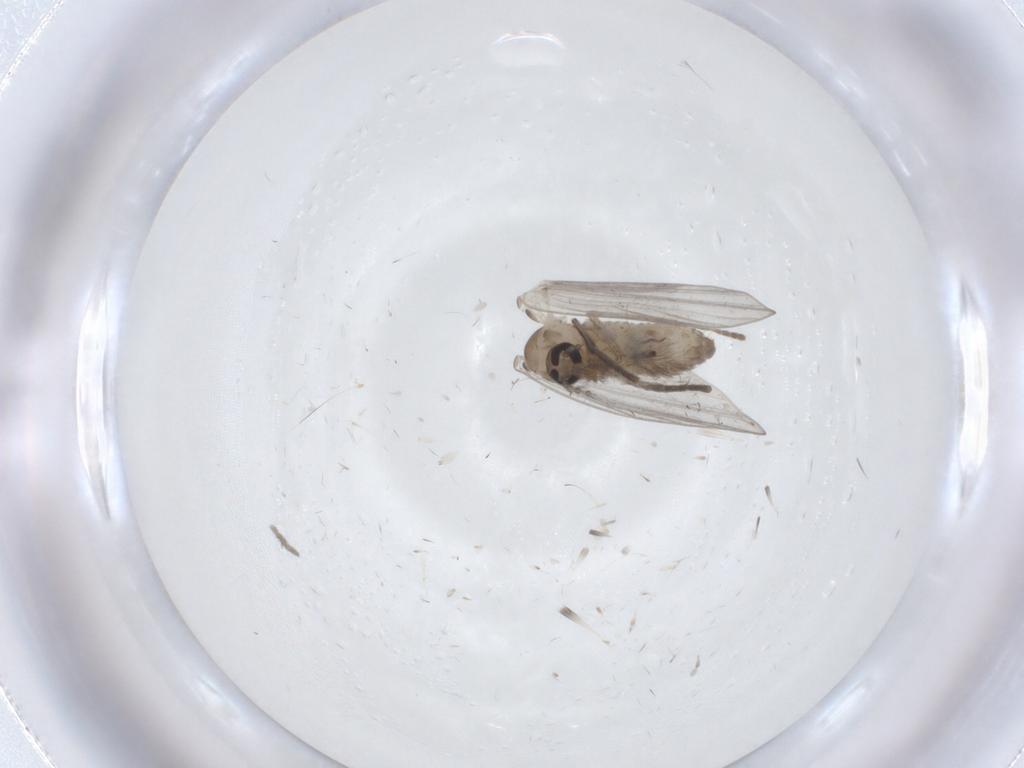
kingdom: Animalia
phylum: Arthropoda
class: Insecta
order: Diptera
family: Psychodidae
